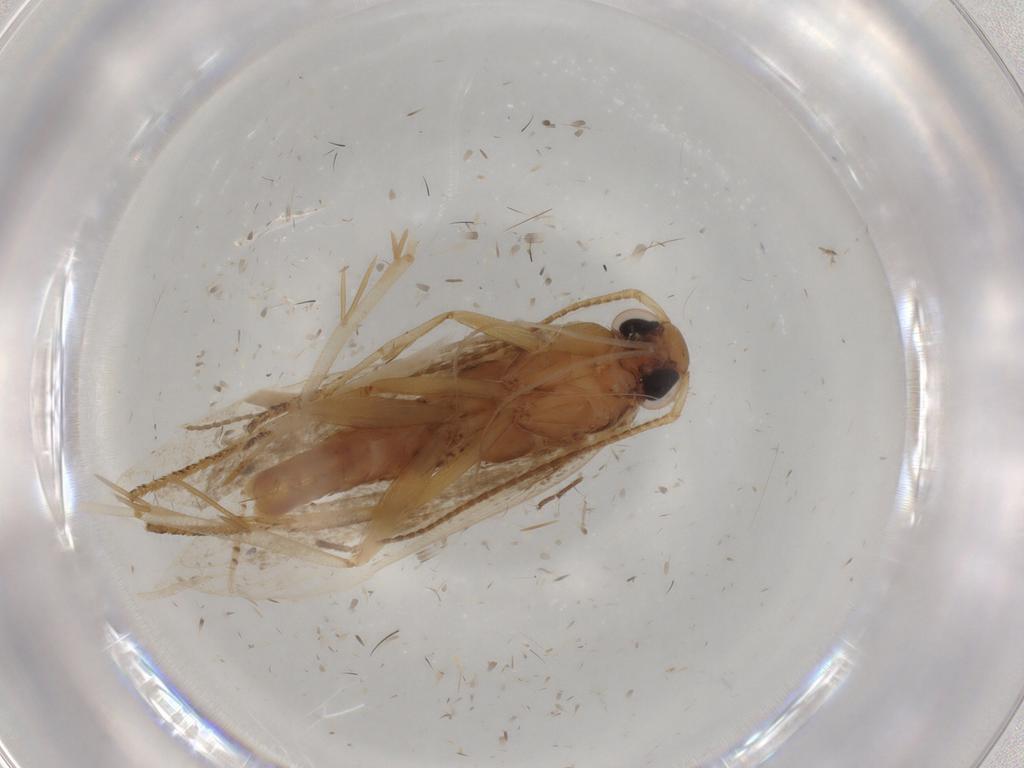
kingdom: Animalia
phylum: Arthropoda
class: Insecta
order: Lepidoptera
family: Gelechiidae
